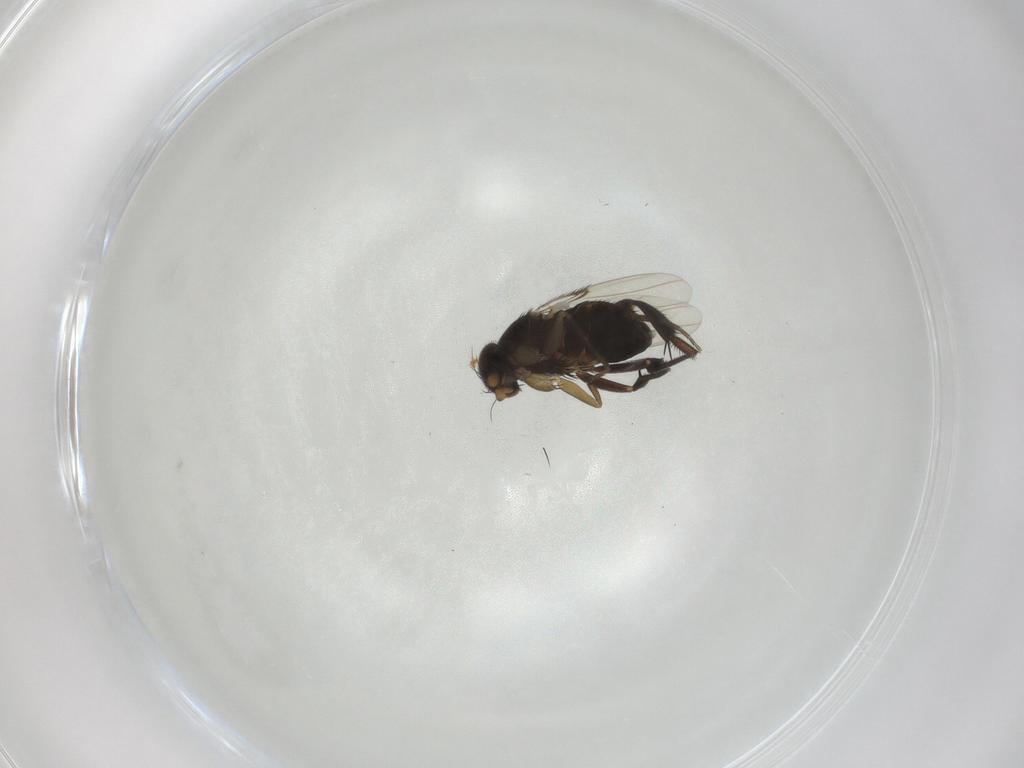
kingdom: Animalia
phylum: Arthropoda
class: Insecta
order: Diptera
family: Phoridae
